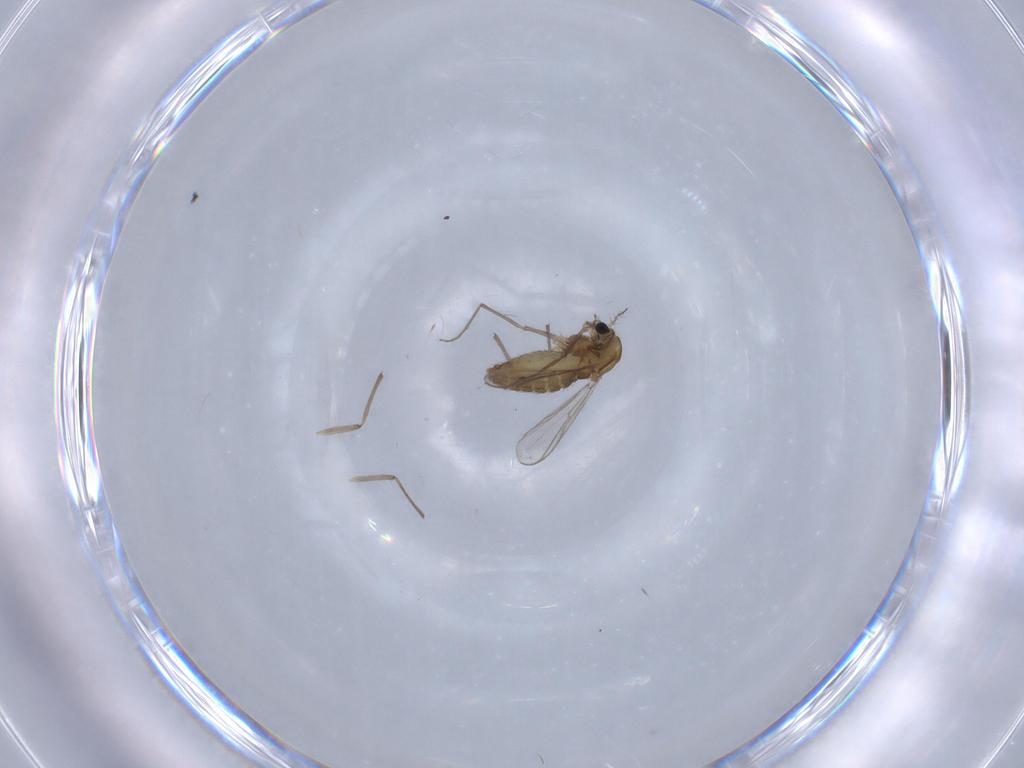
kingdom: Animalia
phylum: Arthropoda
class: Insecta
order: Diptera
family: Chironomidae
